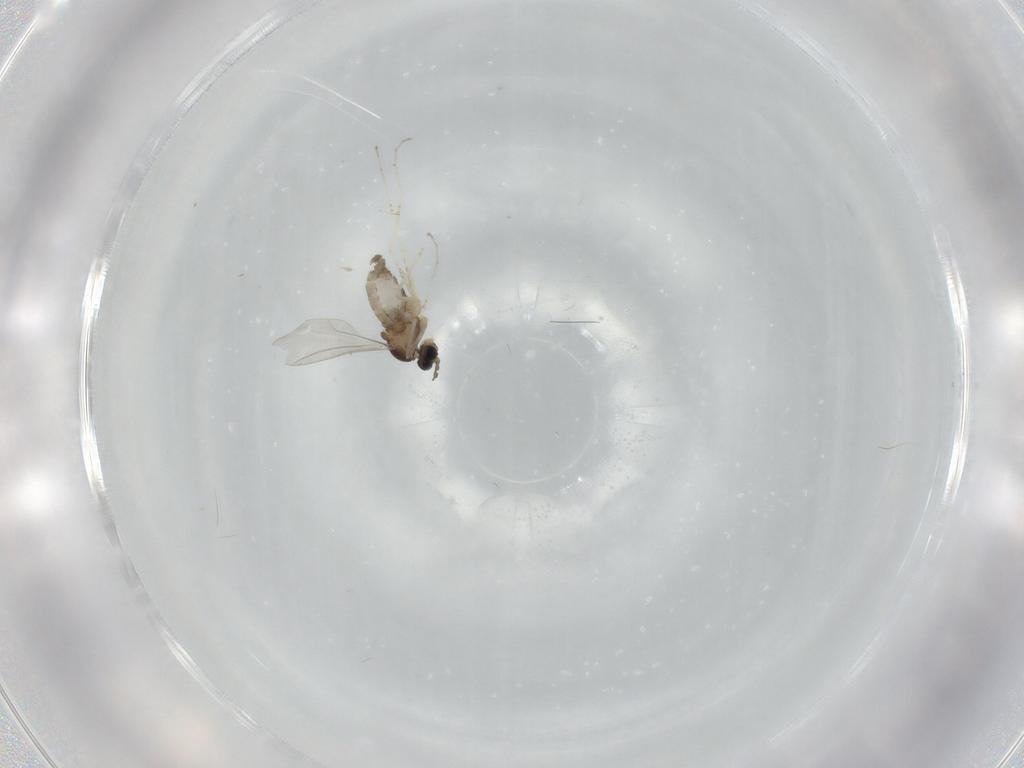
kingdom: Animalia
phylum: Arthropoda
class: Insecta
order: Diptera
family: Cecidomyiidae
